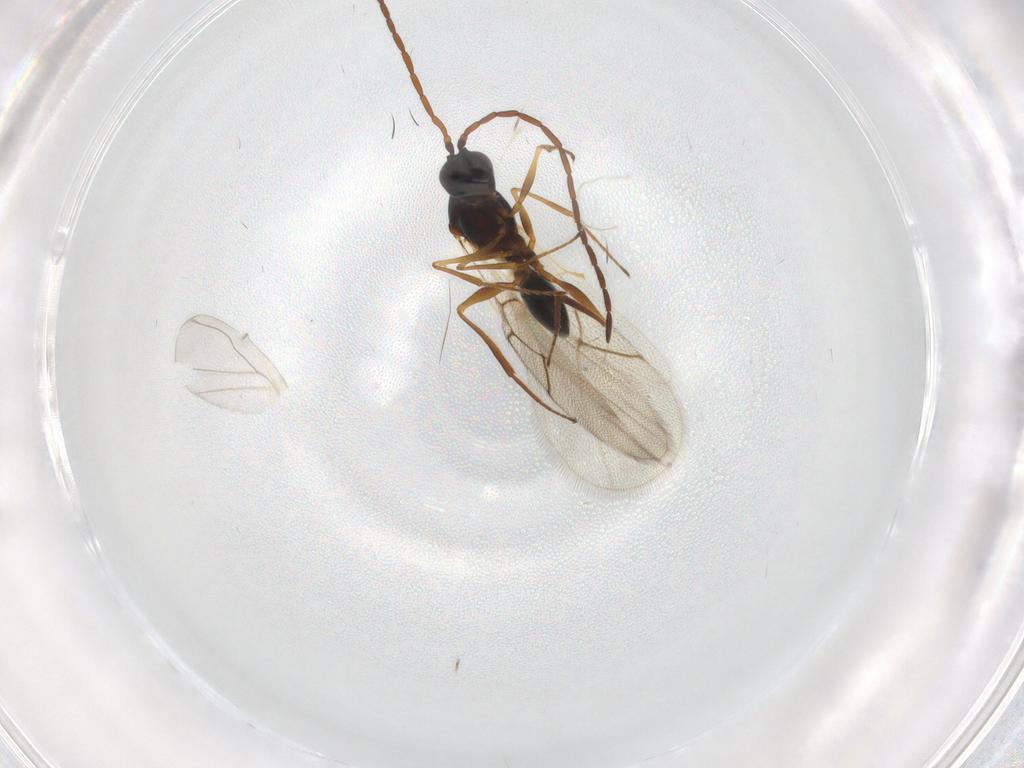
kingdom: Animalia
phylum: Arthropoda
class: Insecta
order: Hymenoptera
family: Figitidae
